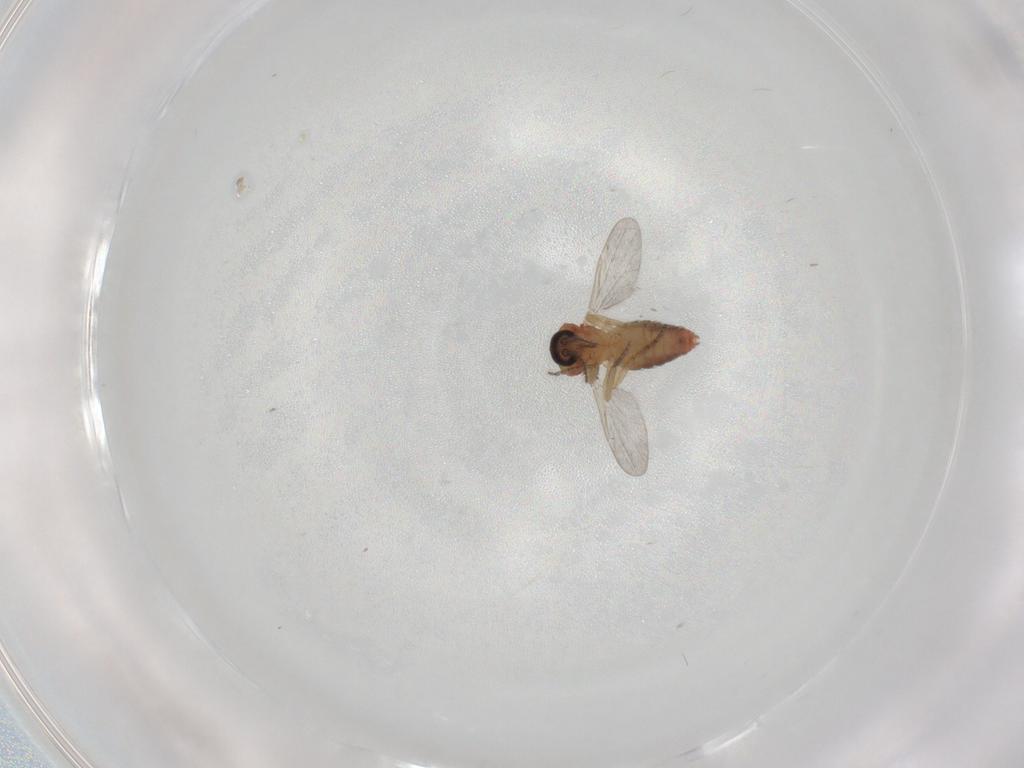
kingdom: Animalia
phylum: Arthropoda
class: Insecta
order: Diptera
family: Ceratopogonidae
